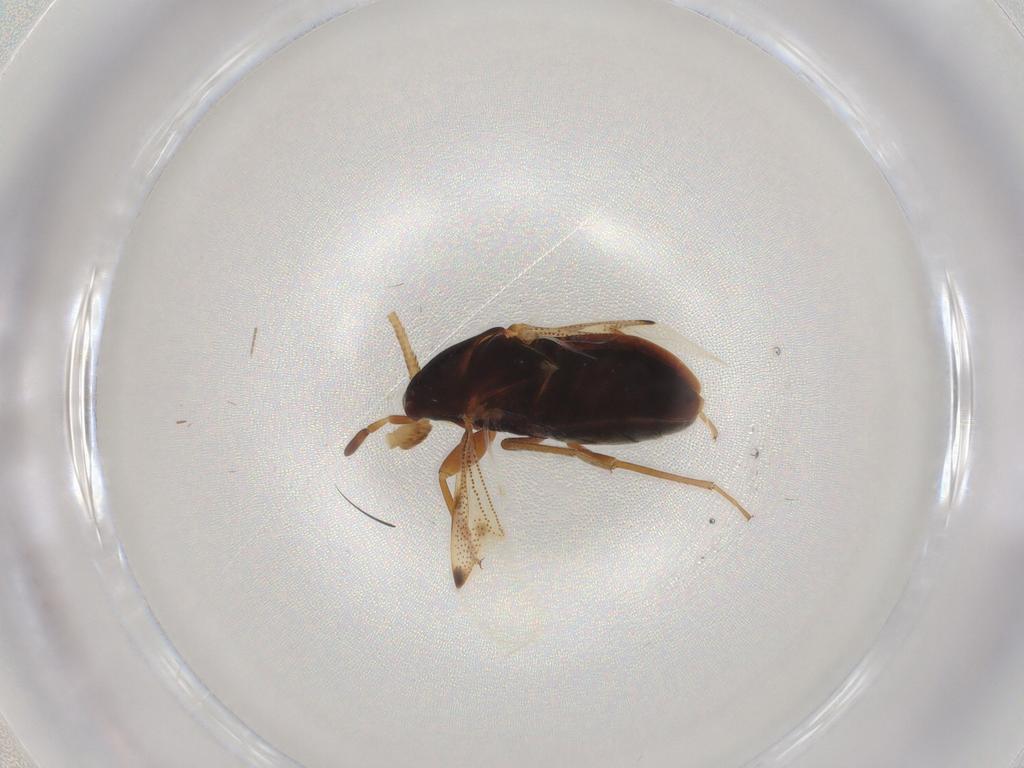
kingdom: Animalia
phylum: Arthropoda
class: Insecta
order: Hemiptera
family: Rhyparochromidae
